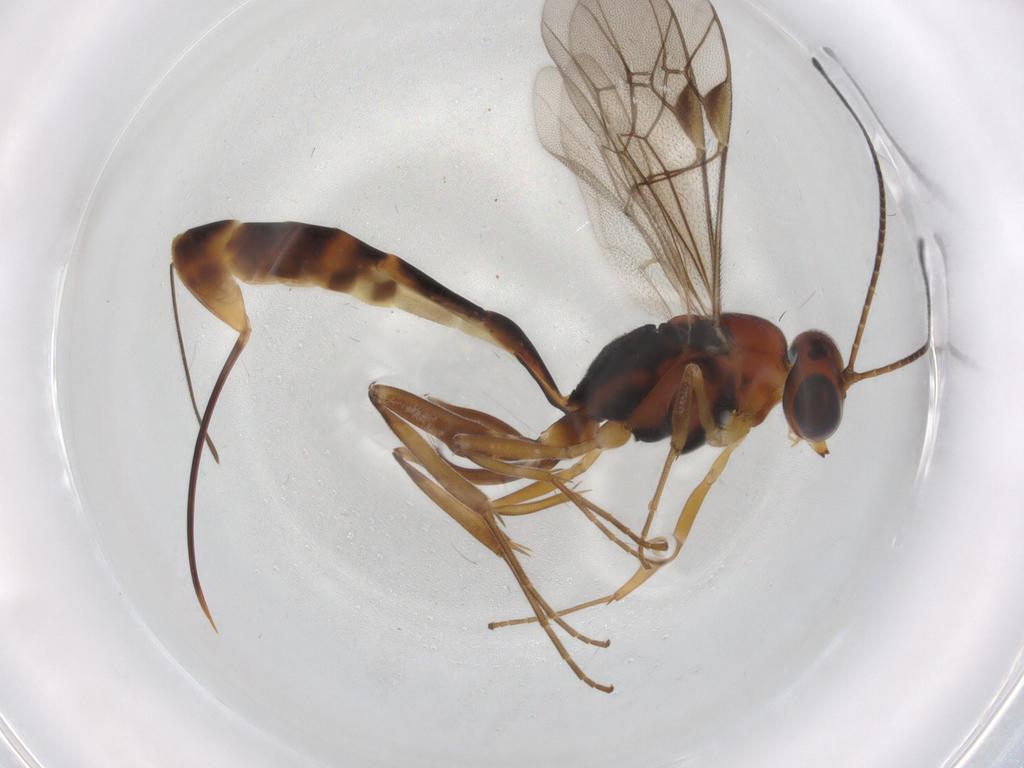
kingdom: Animalia
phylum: Arthropoda
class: Insecta
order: Hymenoptera
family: Ichneumonidae
